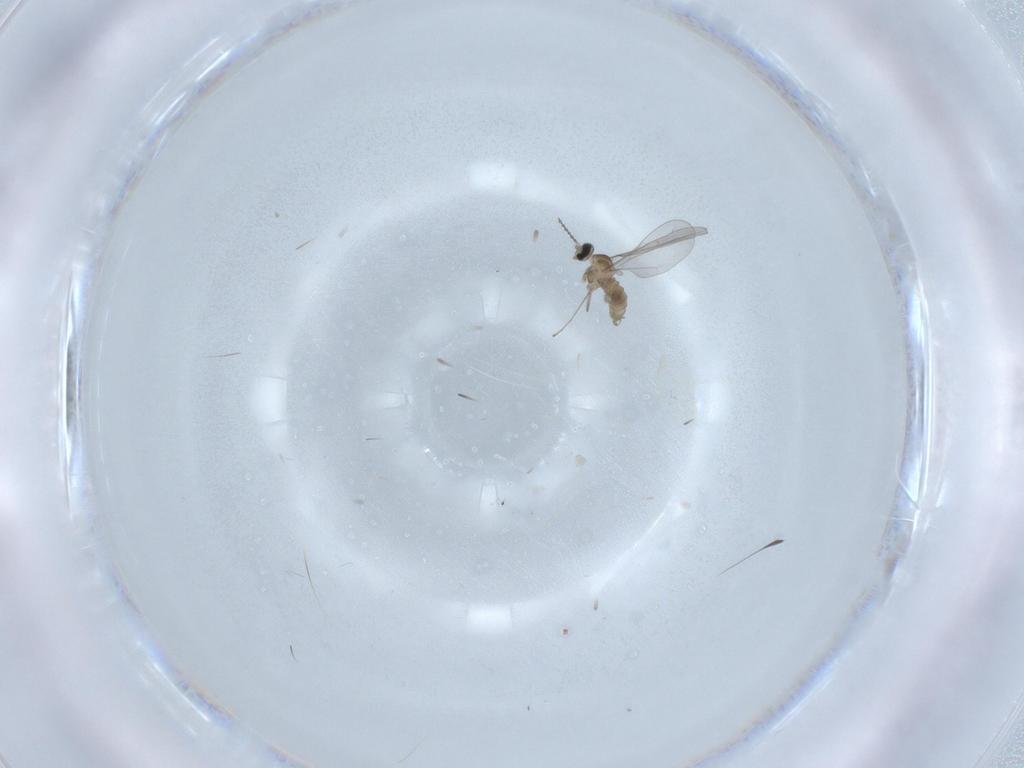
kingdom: Animalia
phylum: Arthropoda
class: Insecta
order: Diptera
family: Cecidomyiidae
